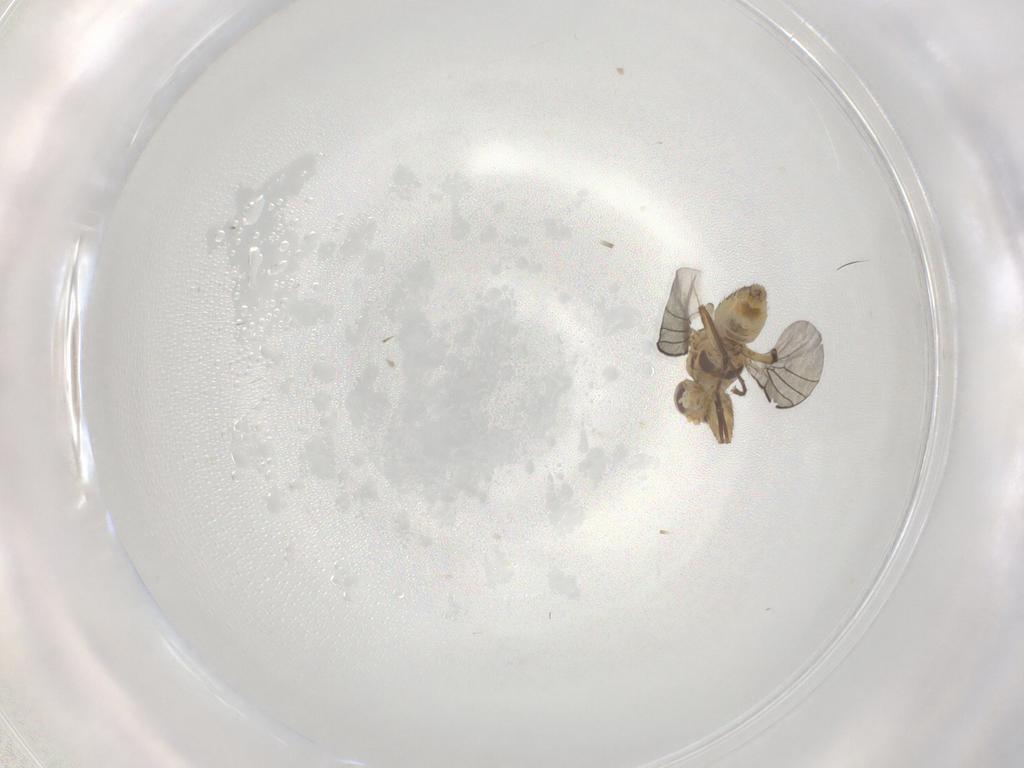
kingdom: Animalia
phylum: Arthropoda
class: Insecta
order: Diptera
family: Agromyzidae
